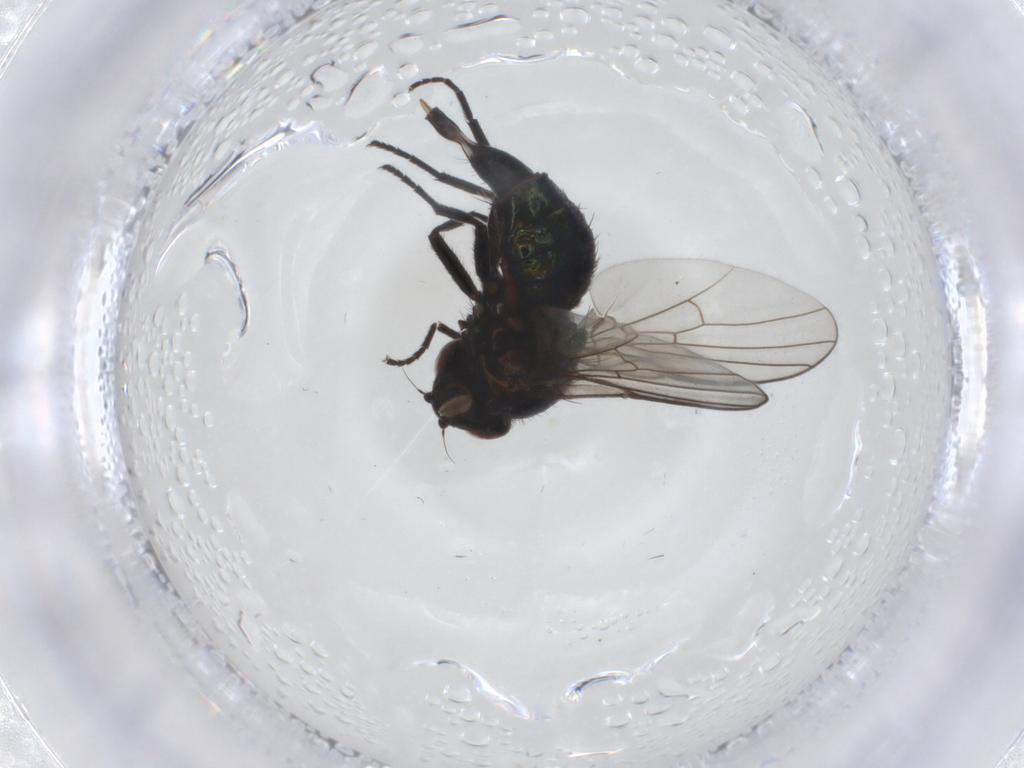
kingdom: Animalia
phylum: Arthropoda
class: Insecta
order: Diptera
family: Agromyzidae
